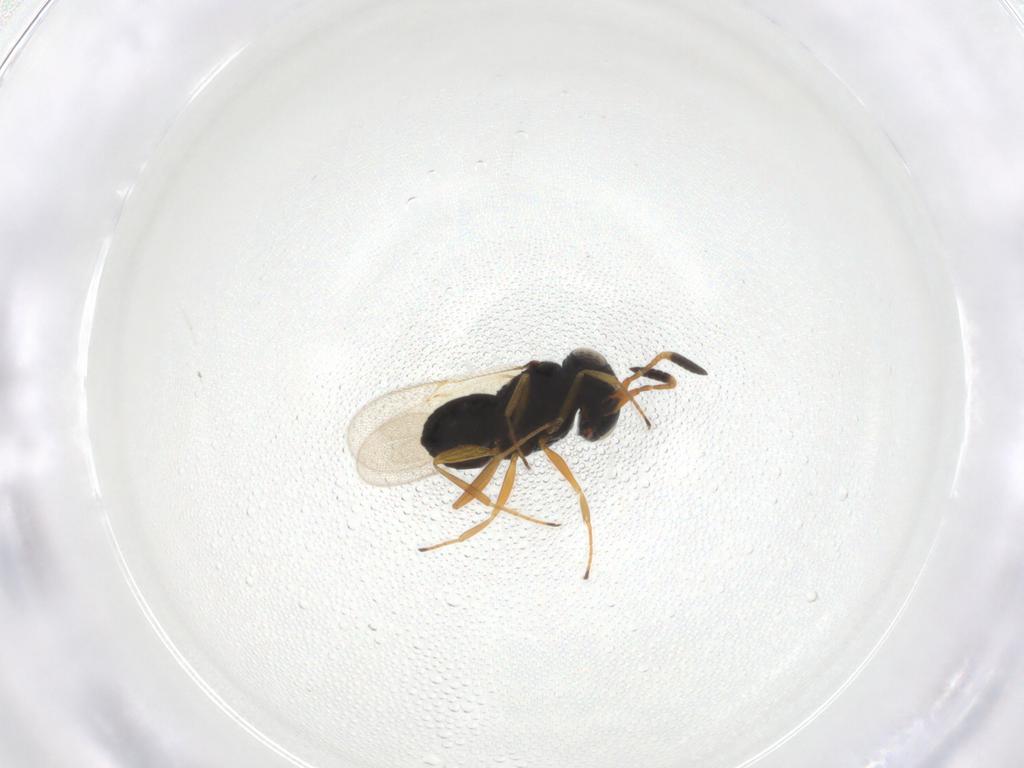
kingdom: Animalia
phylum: Arthropoda
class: Insecta
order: Hymenoptera
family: Scelionidae
